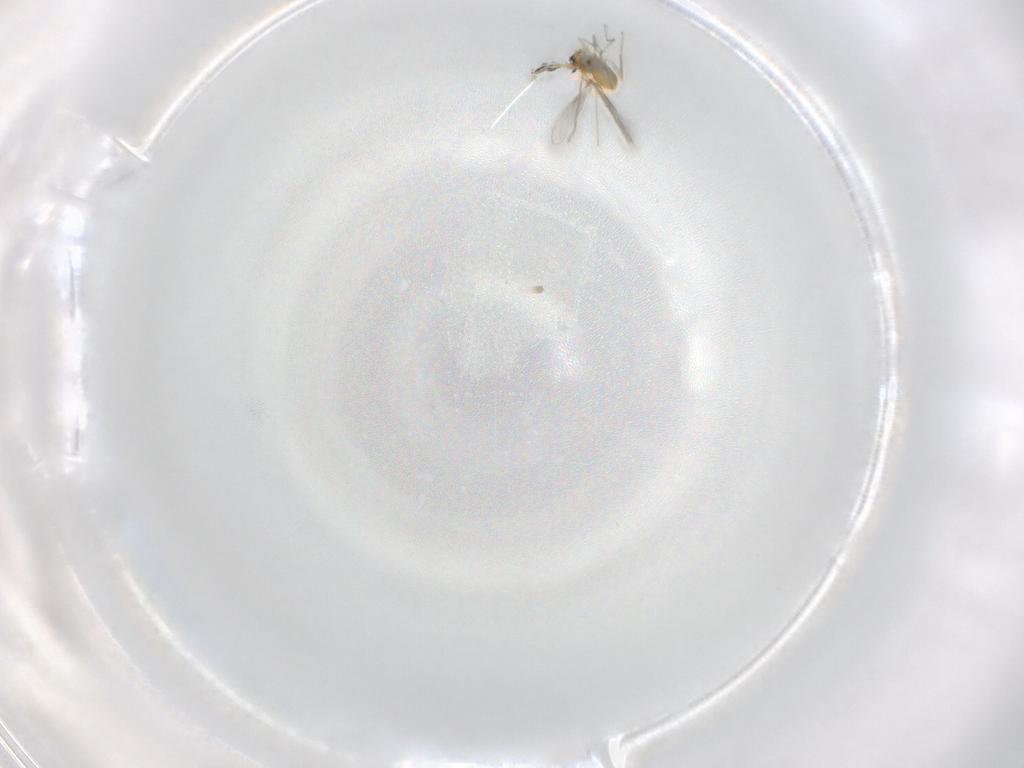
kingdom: Animalia
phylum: Arthropoda
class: Insecta
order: Hymenoptera
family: Mymaridae
